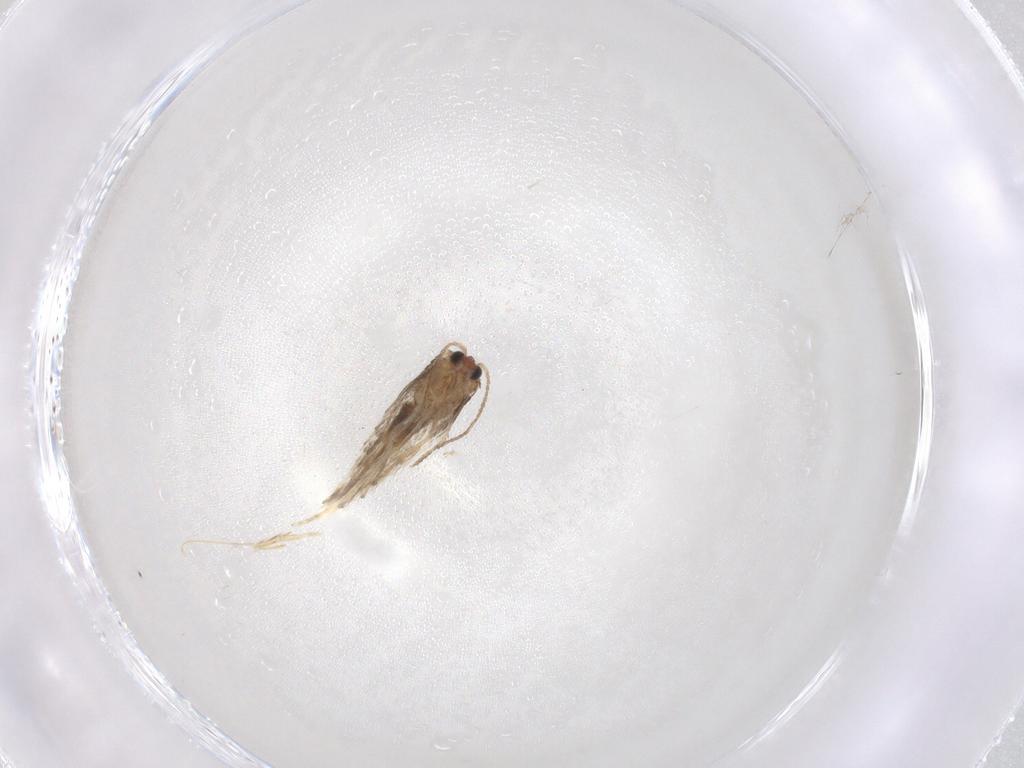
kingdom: Animalia
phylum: Arthropoda
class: Insecta
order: Lepidoptera
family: Nepticulidae
